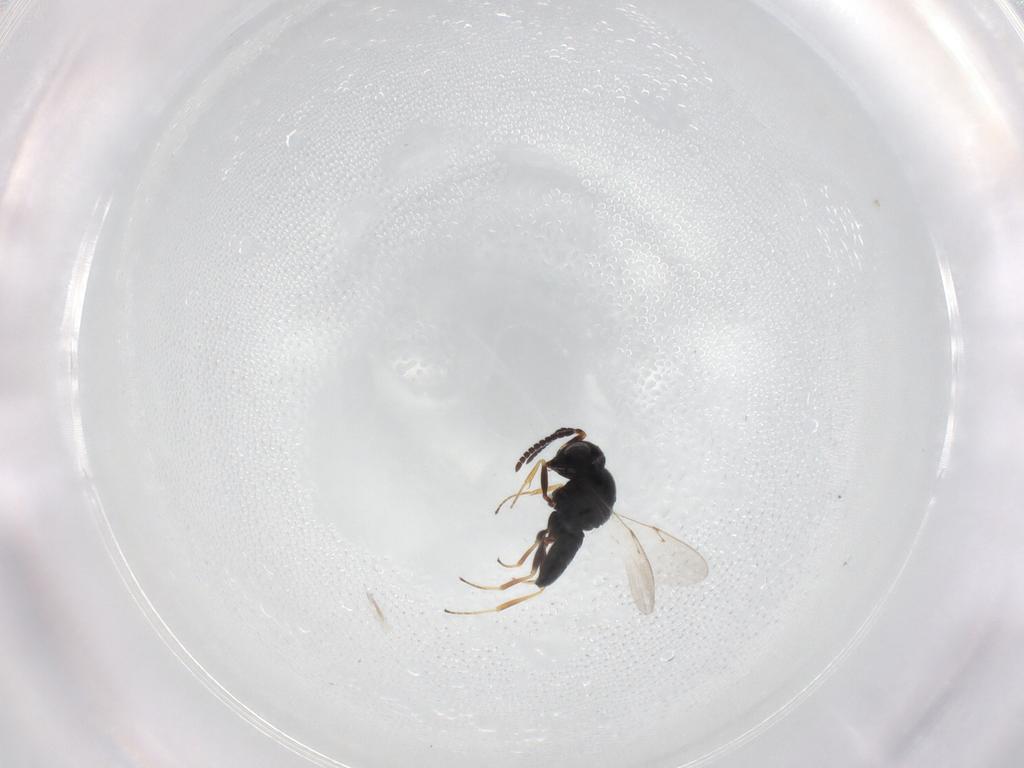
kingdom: Animalia
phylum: Arthropoda
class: Insecta
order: Hymenoptera
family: Scelionidae
